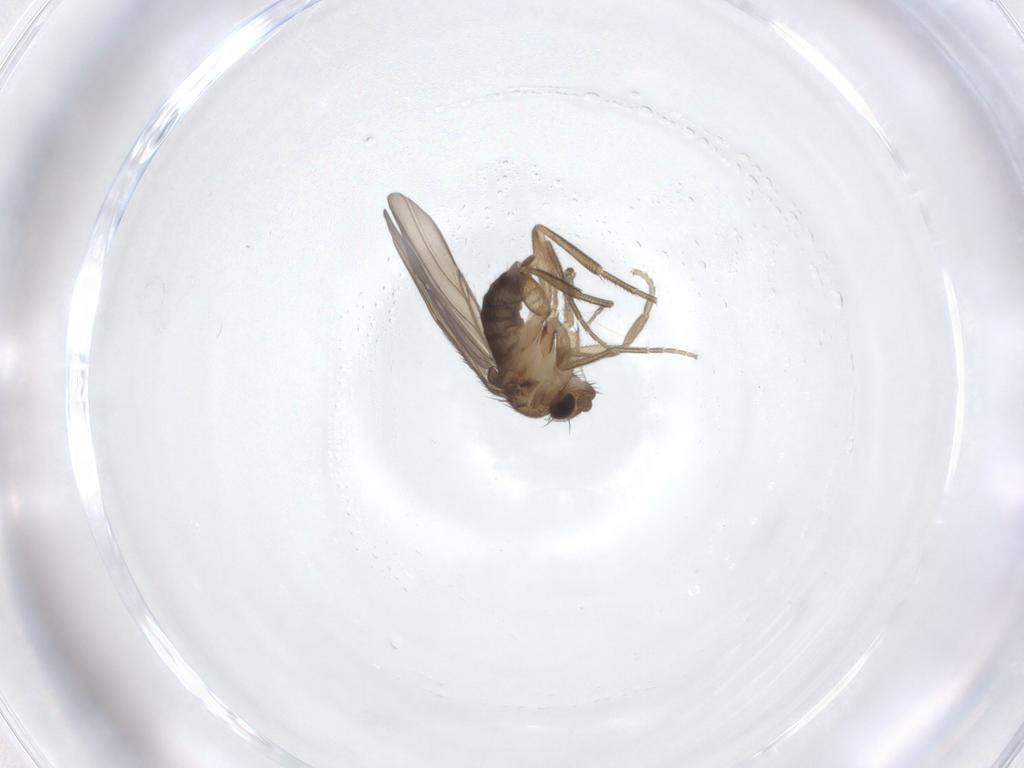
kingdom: Animalia
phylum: Arthropoda
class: Insecta
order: Diptera
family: Phoridae
